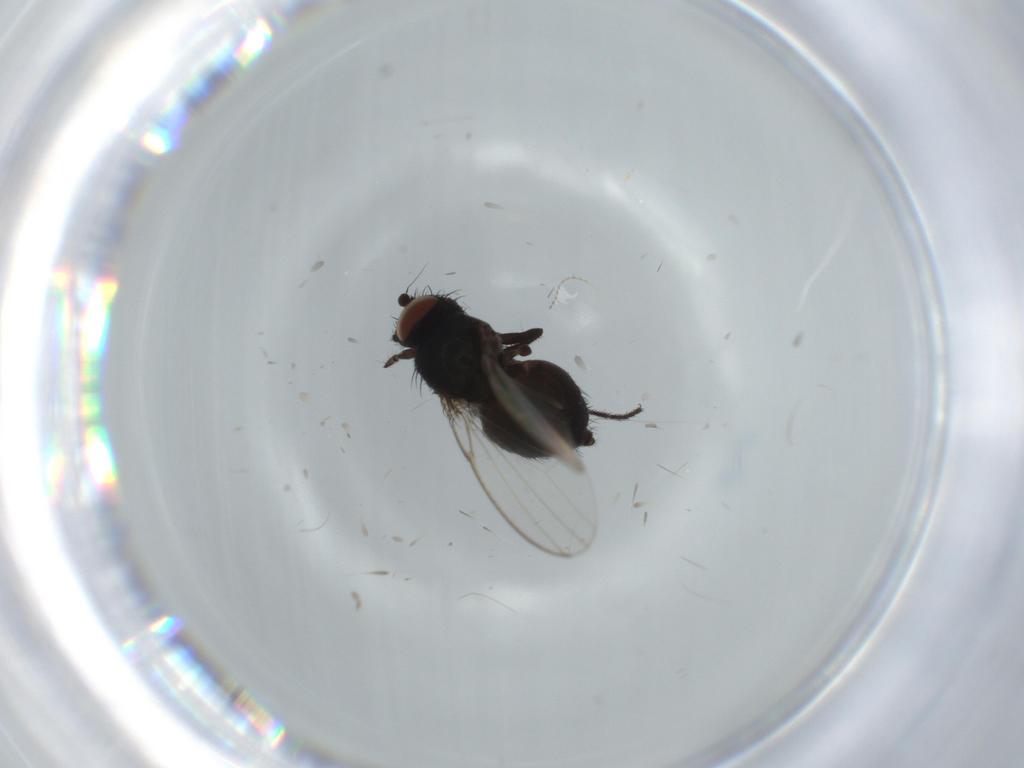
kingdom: Animalia
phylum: Arthropoda
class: Insecta
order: Diptera
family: Milichiidae
